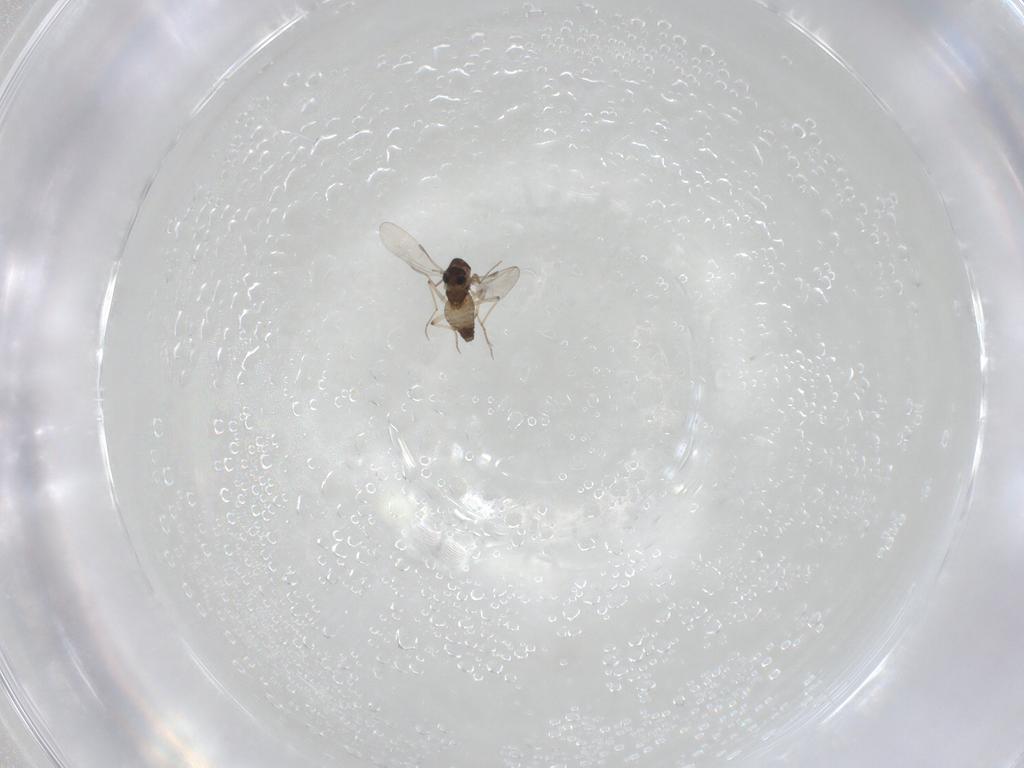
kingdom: Animalia
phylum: Arthropoda
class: Insecta
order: Diptera
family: Chironomidae
